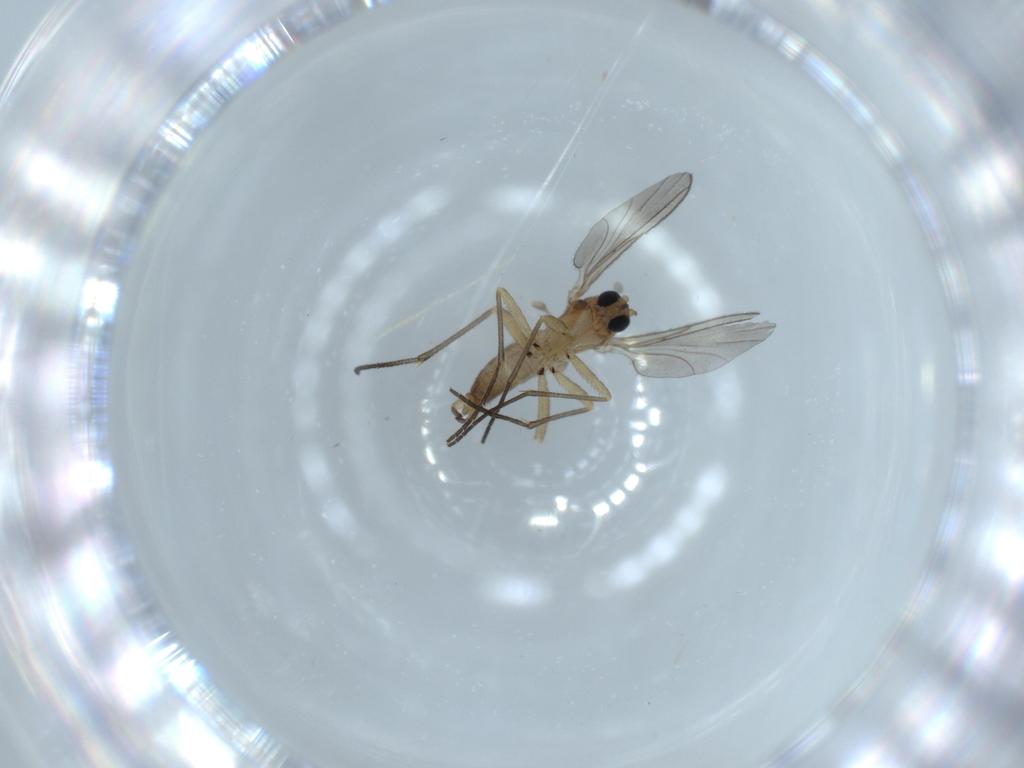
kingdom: Animalia
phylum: Arthropoda
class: Insecta
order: Diptera
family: Sciaridae
